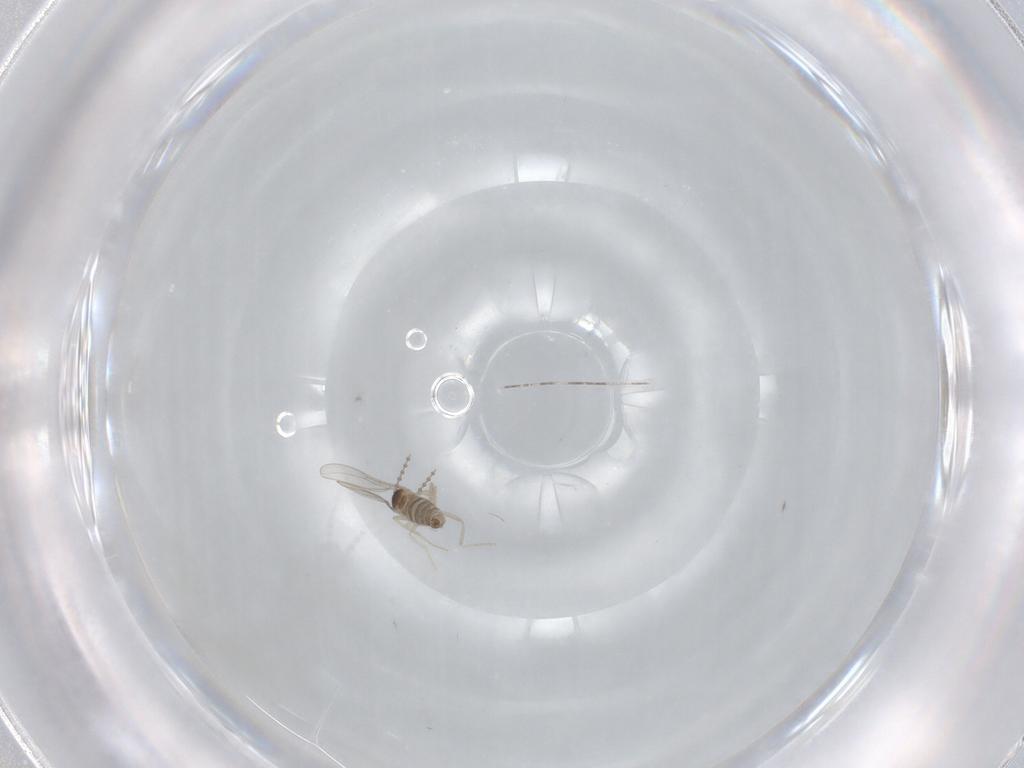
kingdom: Animalia
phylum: Arthropoda
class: Insecta
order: Diptera
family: Cecidomyiidae
